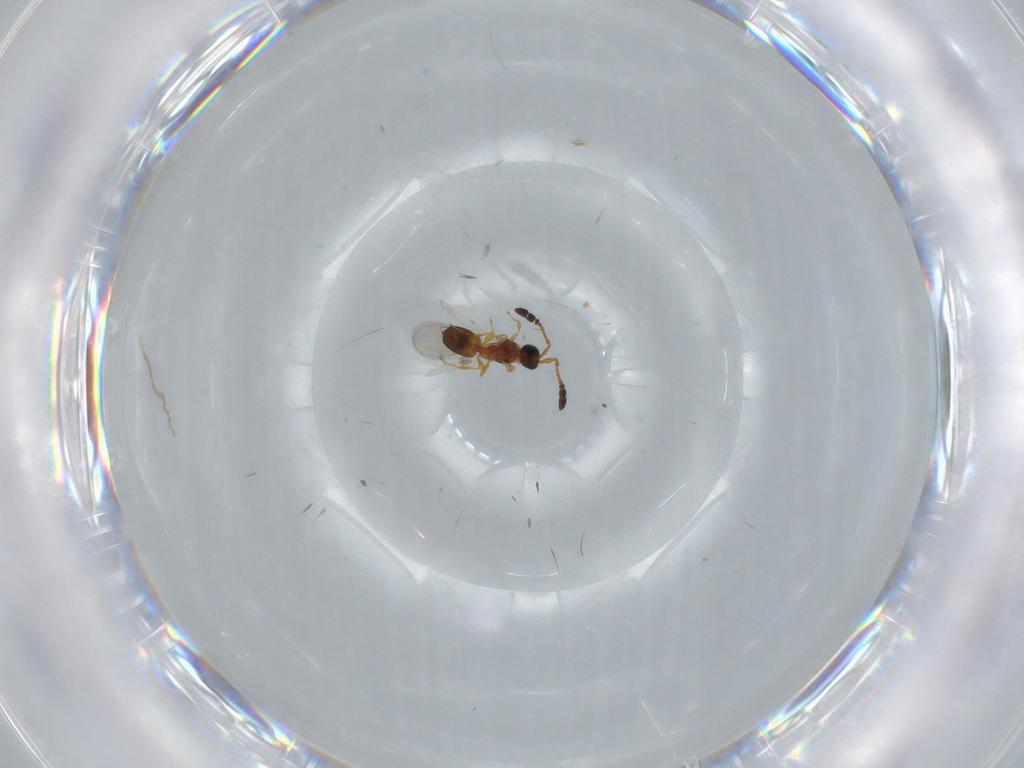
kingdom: Animalia
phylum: Arthropoda
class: Insecta
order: Hymenoptera
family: Diapriidae
